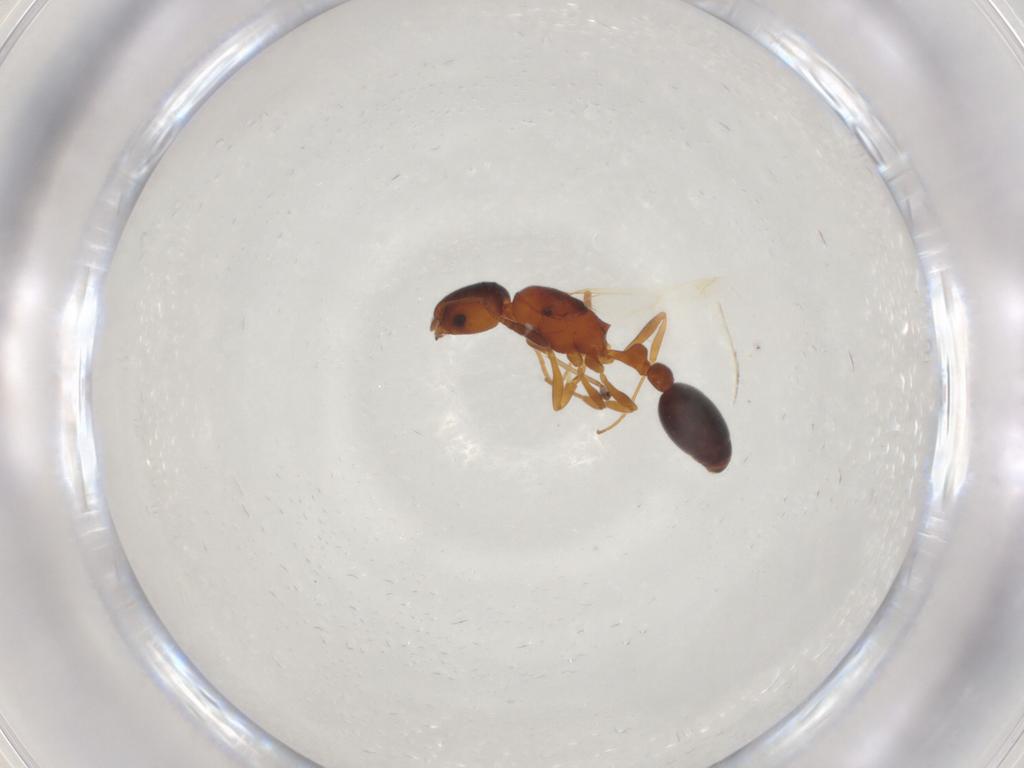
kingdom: Animalia
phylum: Arthropoda
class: Insecta
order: Hymenoptera
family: Formicidae
